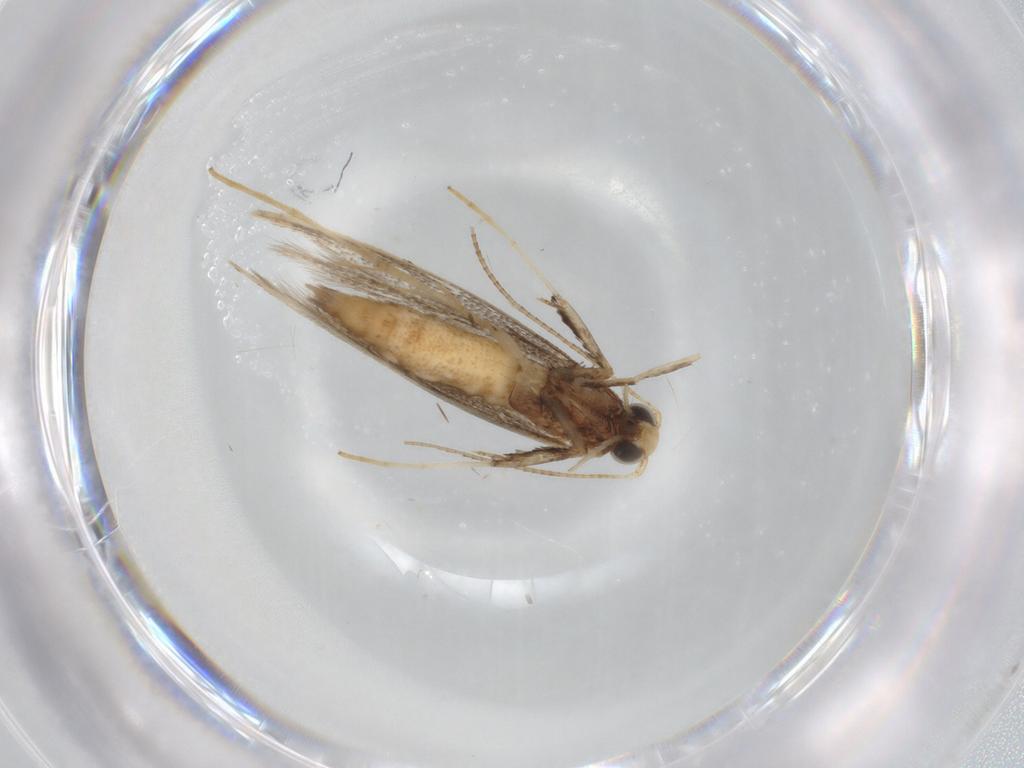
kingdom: Animalia
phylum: Arthropoda
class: Insecta
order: Lepidoptera
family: Gracillariidae
